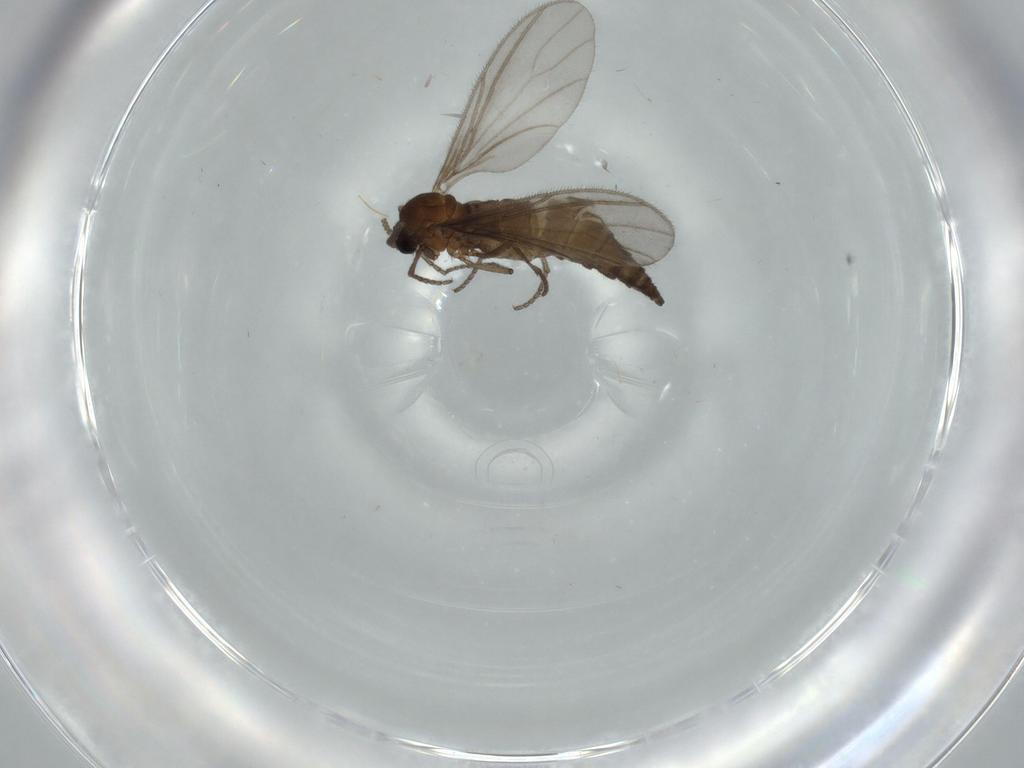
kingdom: Animalia
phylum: Arthropoda
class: Insecta
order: Diptera
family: Sciaridae
